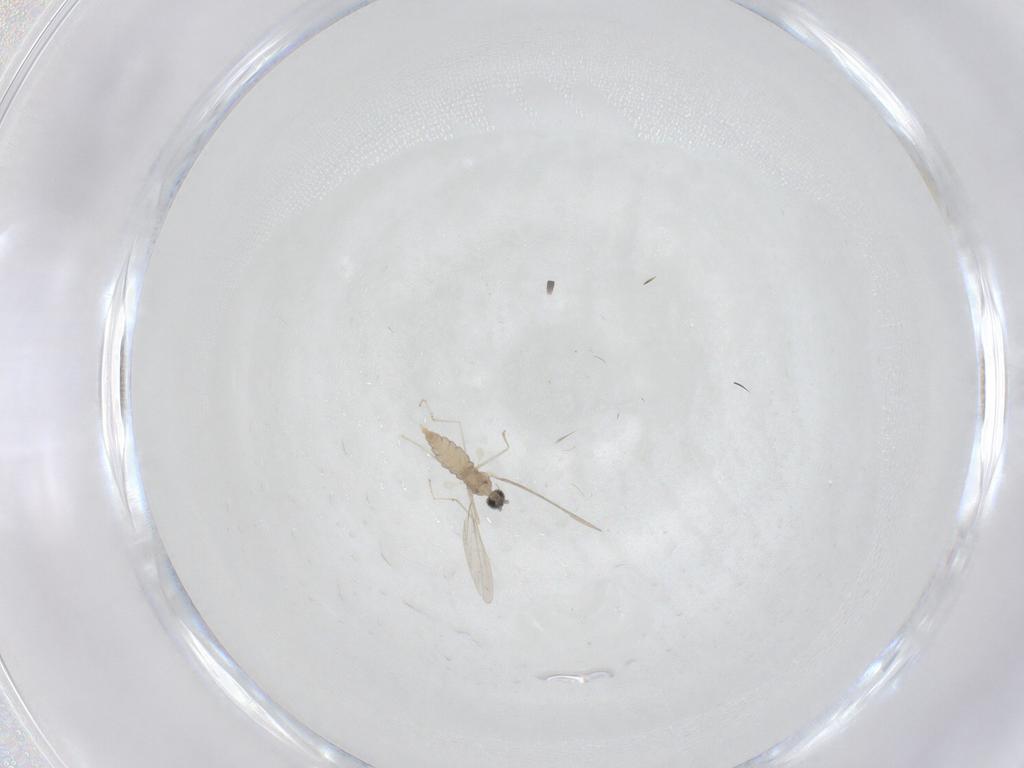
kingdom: Animalia
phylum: Arthropoda
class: Insecta
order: Diptera
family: Cecidomyiidae
